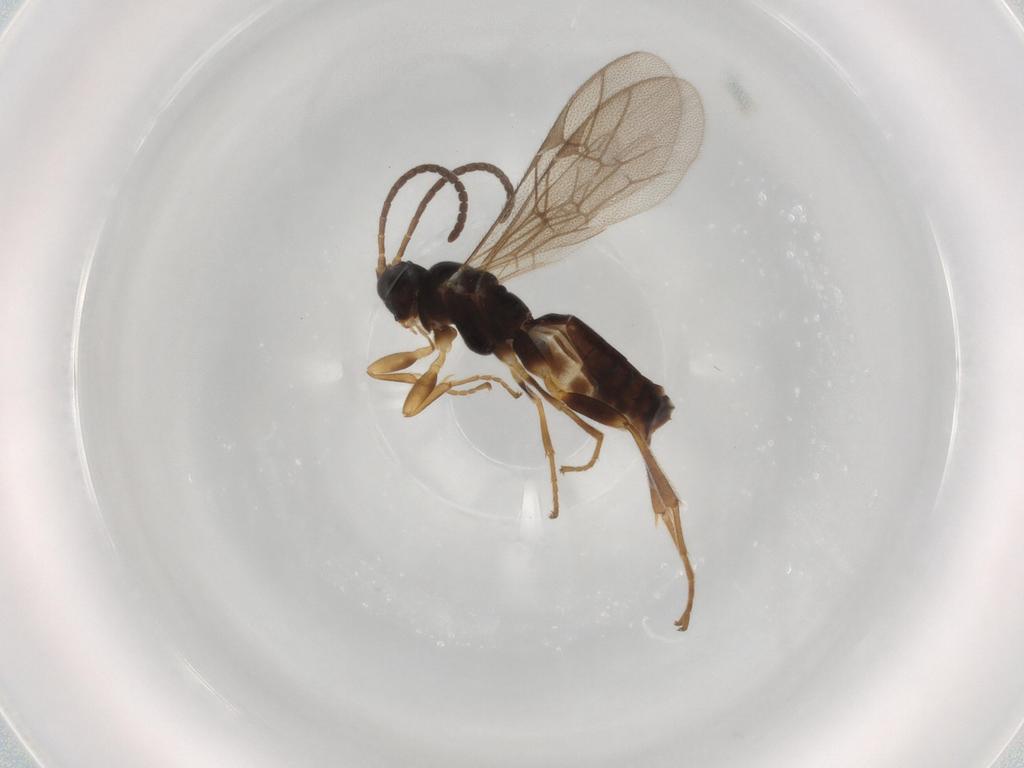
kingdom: Animalia
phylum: Arthropoda
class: Insecta
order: Hymenoptera
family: Ichneumonidae
